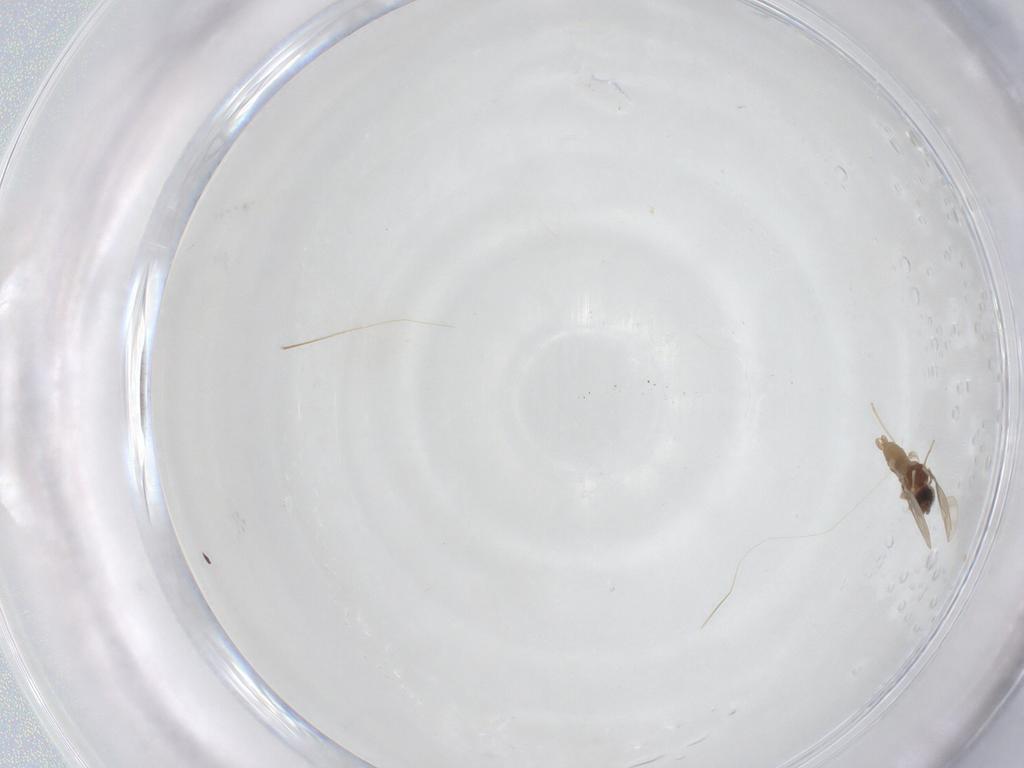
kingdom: Animalia
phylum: Arthropoda
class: Insecta
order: Diptera
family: Cecidomyiidae
